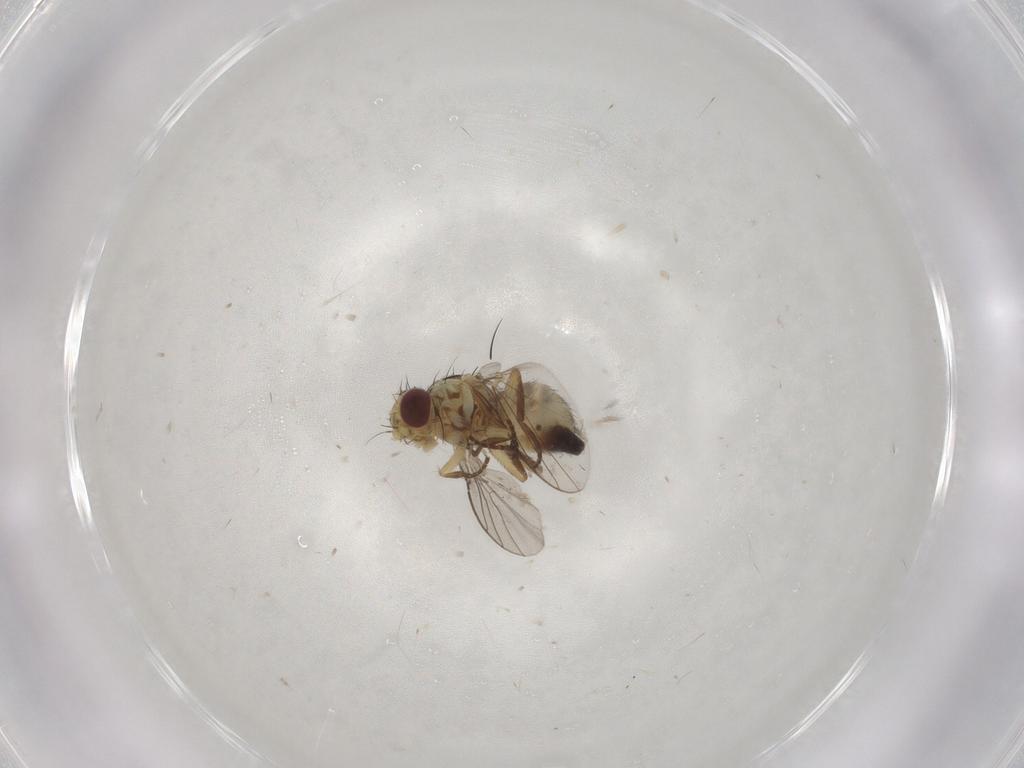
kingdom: Animalia
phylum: Arthropoda
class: Insecta
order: Diptera
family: Agromyzidae
